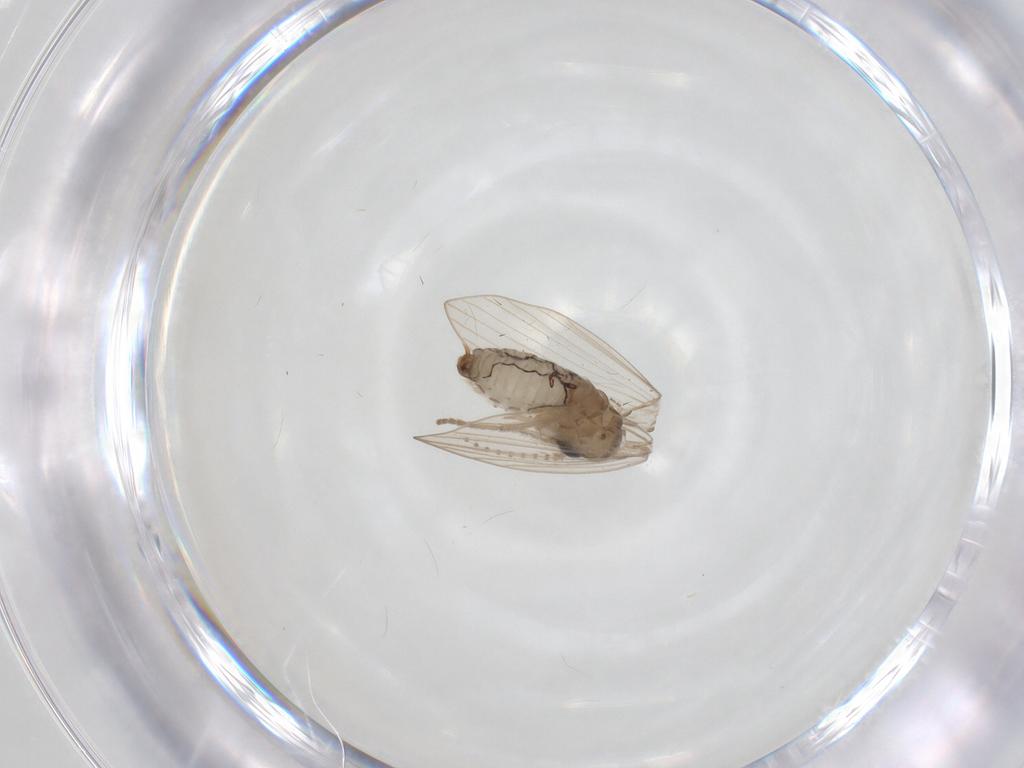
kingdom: Animalia
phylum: Arthropoda
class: Insecta
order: Diptera
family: Psychodidae
